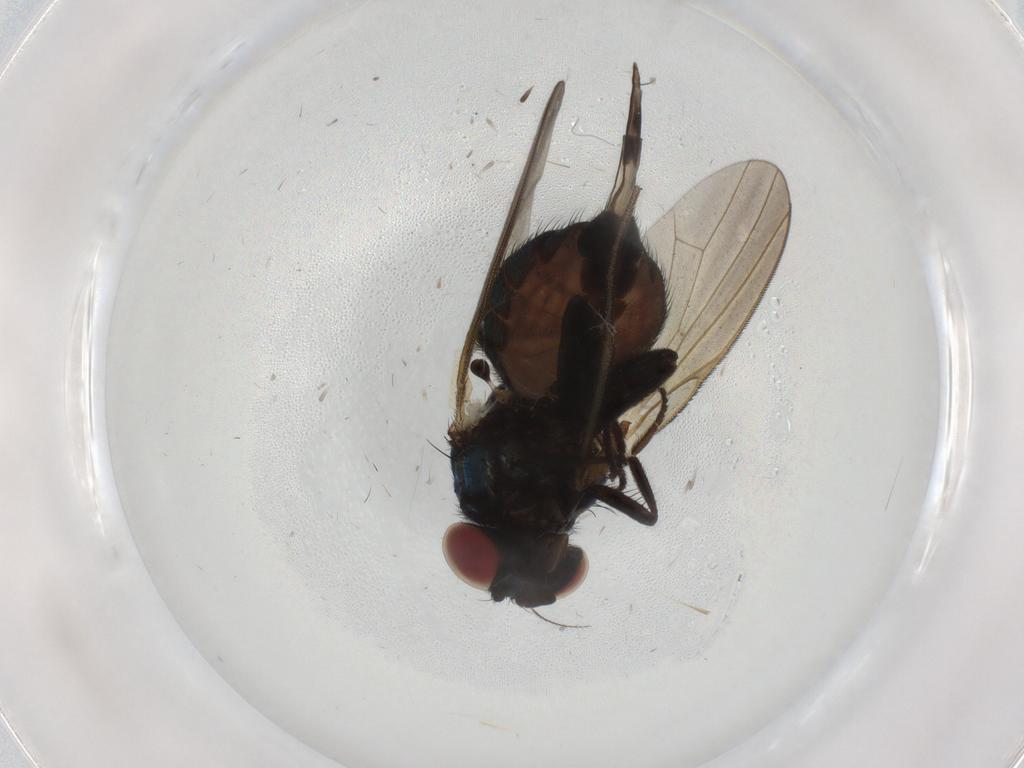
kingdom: Animalia
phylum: Arthropoda
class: Insecta
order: Diptera
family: Lonchaeidae
